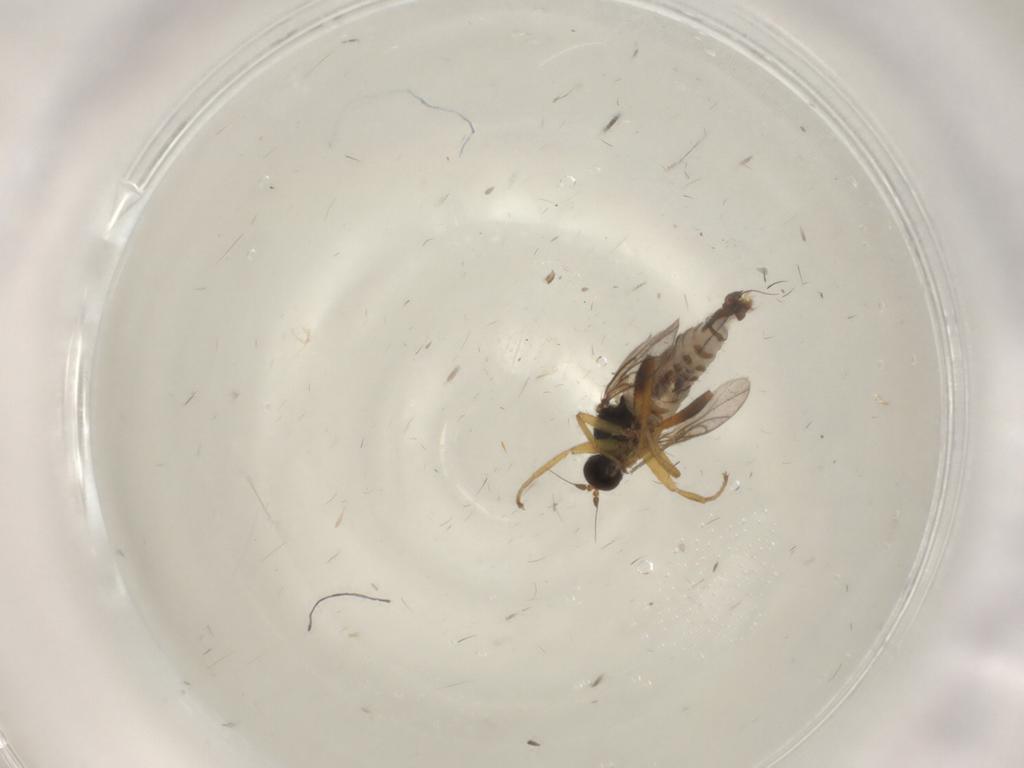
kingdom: Animalia
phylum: Arthropoda
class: Insecta
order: Diptera
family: Hybotidae
